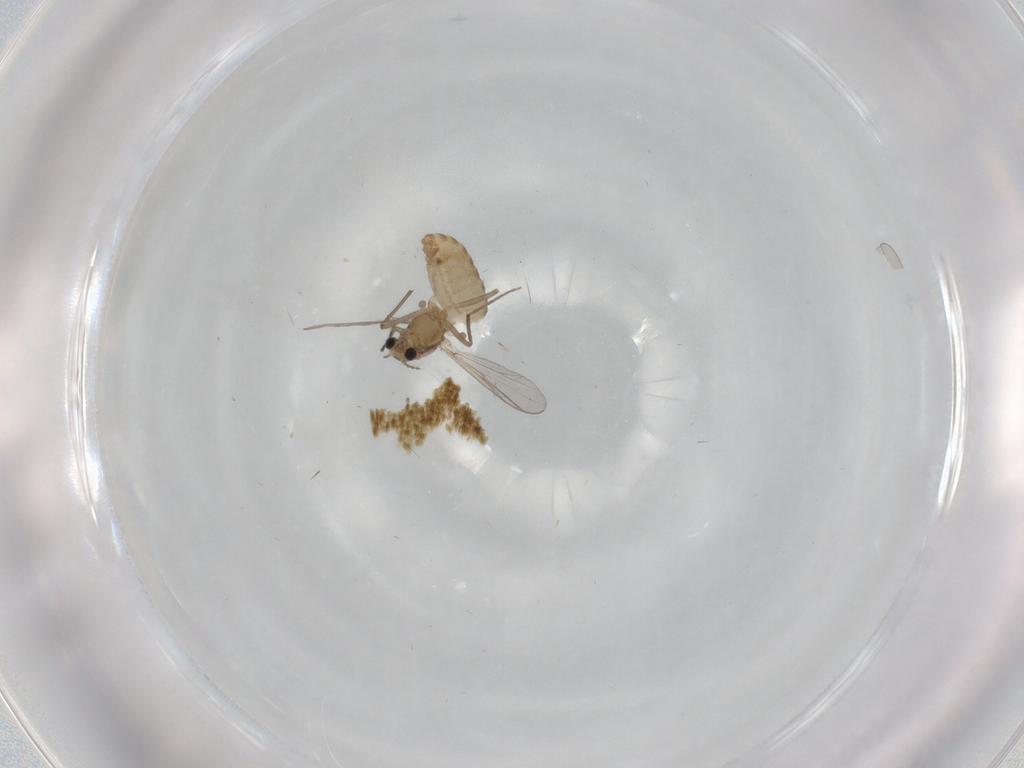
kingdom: Animalia
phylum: Arthropoda
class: Insecta
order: Diptera
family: Chironomidae
